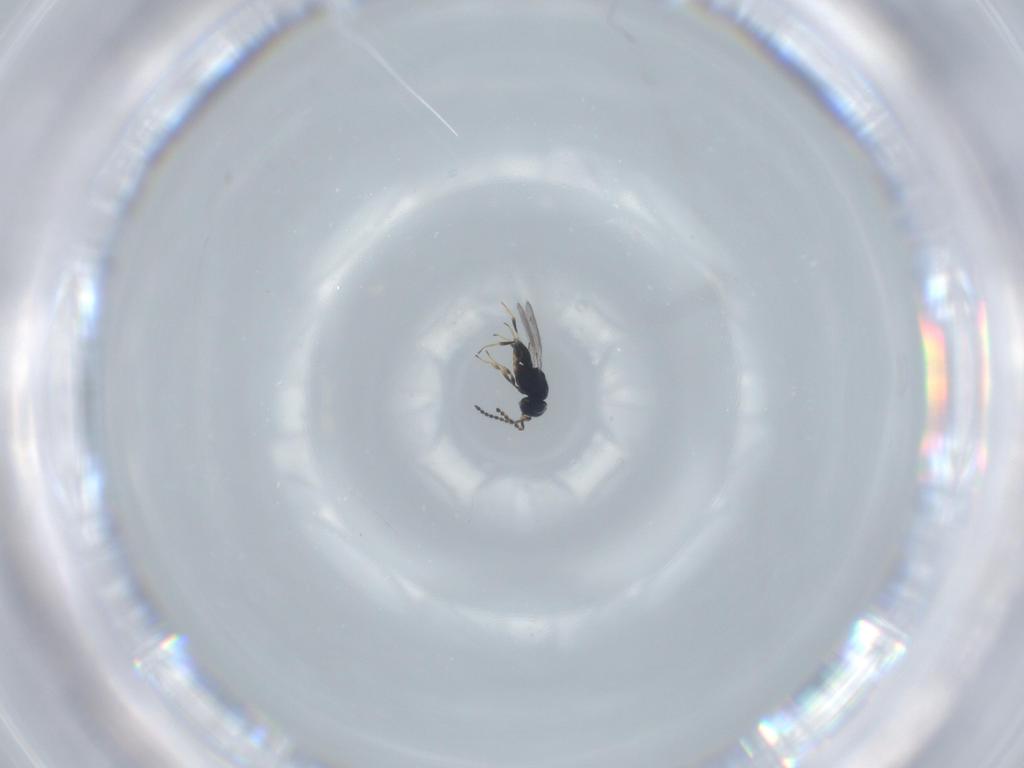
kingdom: Animalia
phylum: Arthropoda
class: Insecta
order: Hymenoptera
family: Scelionidae
